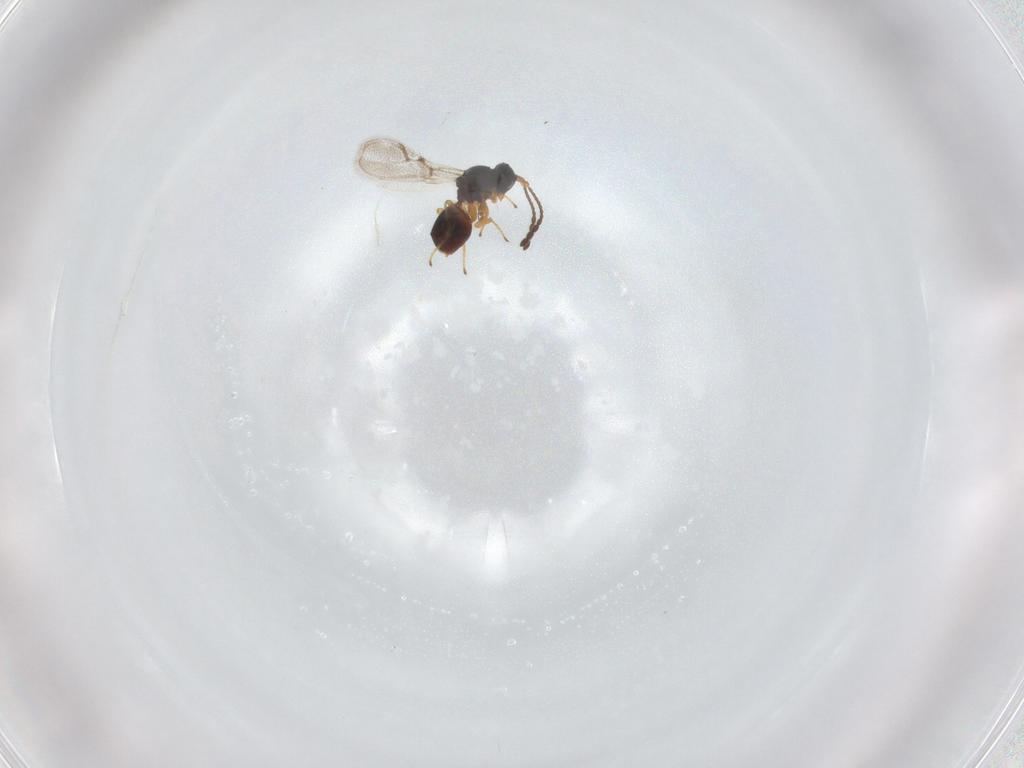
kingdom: Animalia
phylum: Arthropoda
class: Insecta
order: Hymenoptera
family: Figitidae
